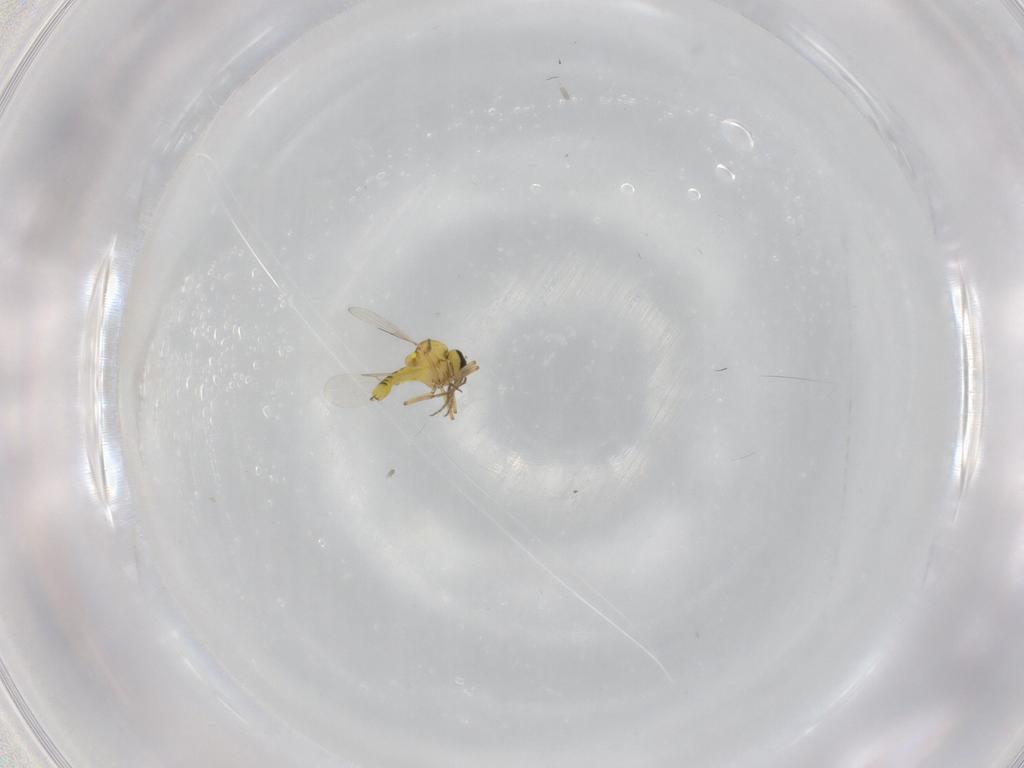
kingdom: Animalia
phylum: Arthropoda
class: Insecta
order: Diptera
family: Ceratopogonidae
